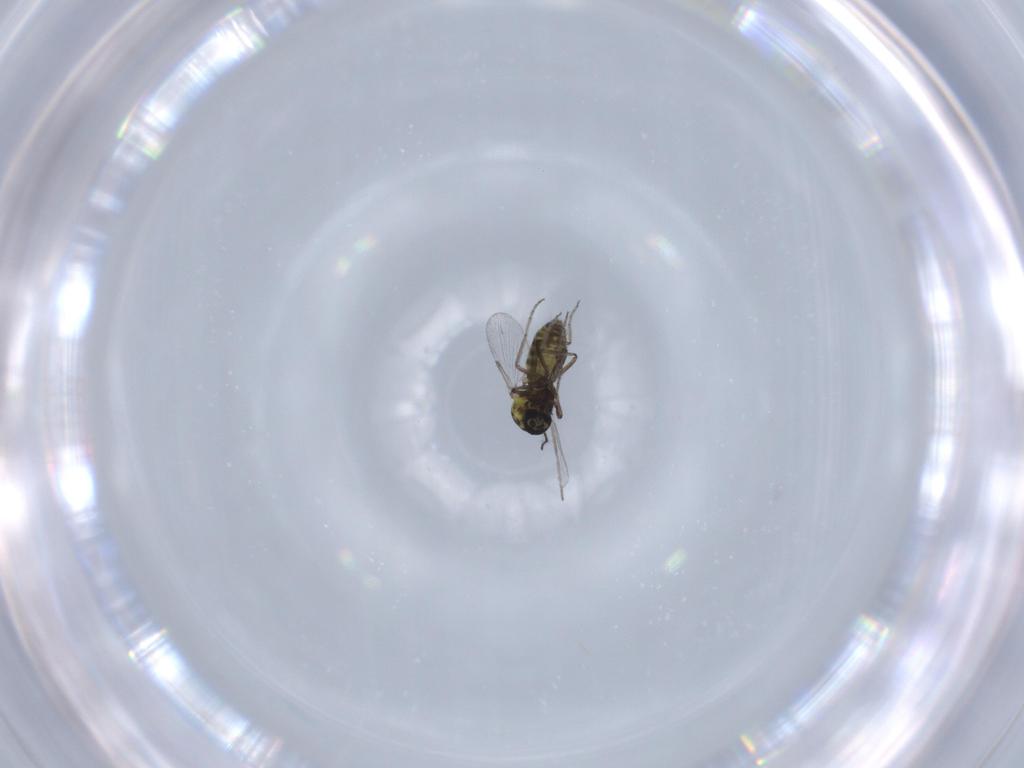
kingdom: Animalia
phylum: Arthropoda
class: Insecta
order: Diptera
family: Ceratopogonidae
